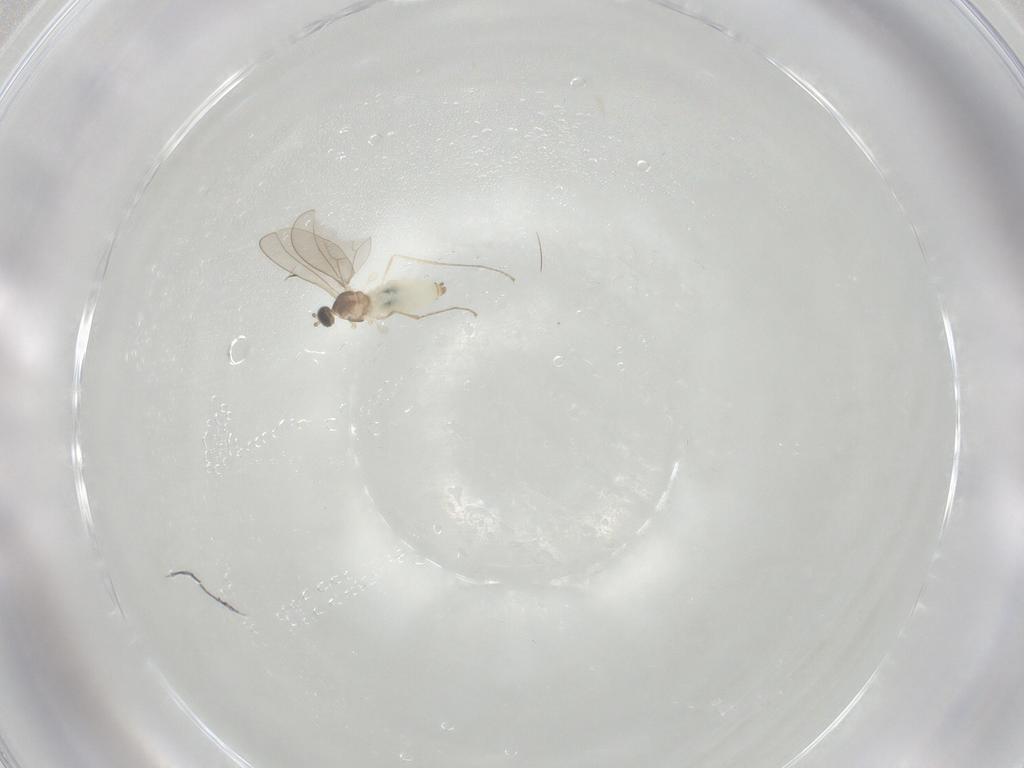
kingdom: Animalia
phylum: Arthropoda
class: Insecta
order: Diptera
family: Cecidomyiidae
